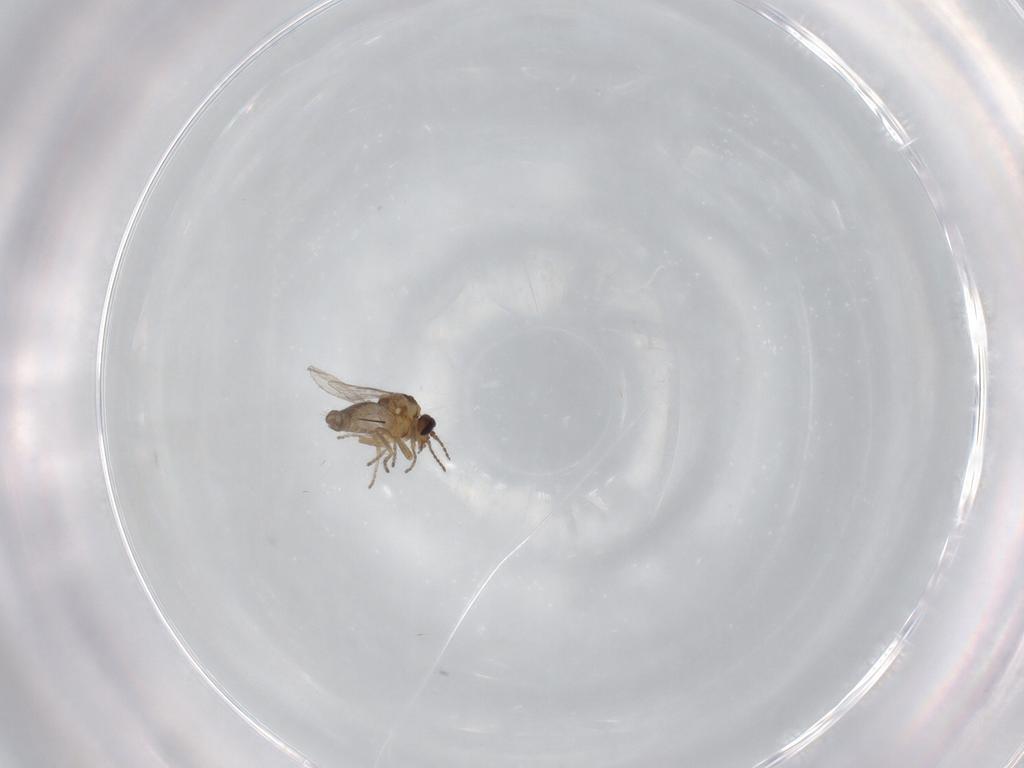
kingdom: Animalia
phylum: Arthropoda
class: Insecta
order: Diptera
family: Ceratopogonidae
